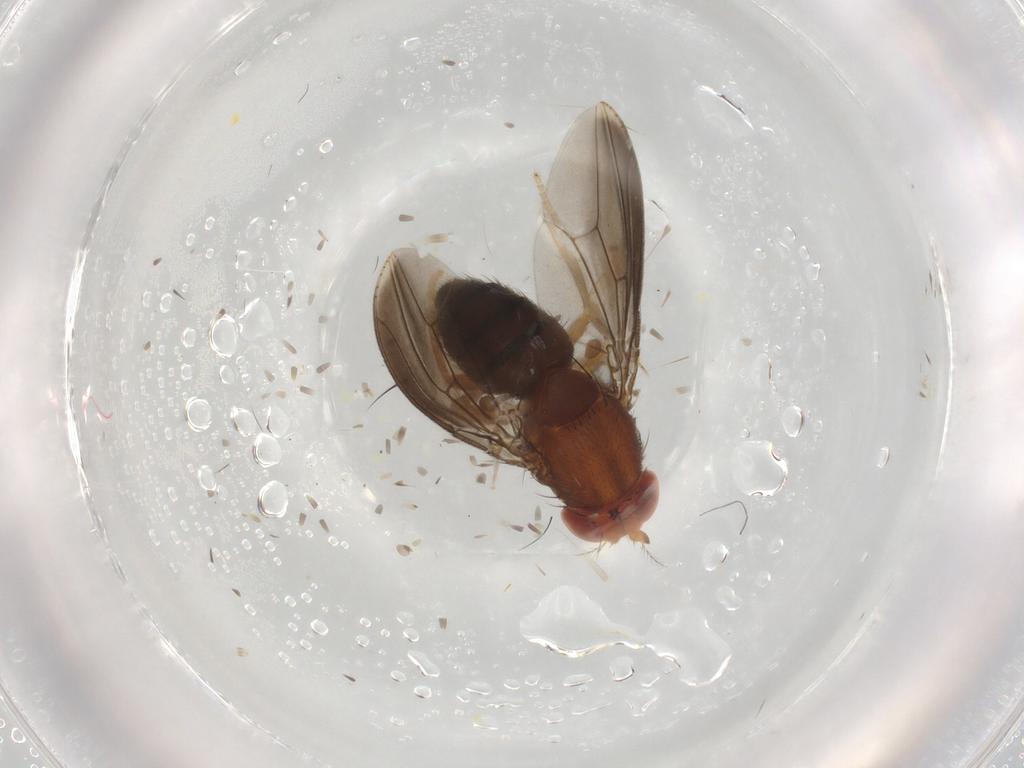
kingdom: Animalia
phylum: Arthropoda
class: Insecta
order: Diptera
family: Drosophilidae
